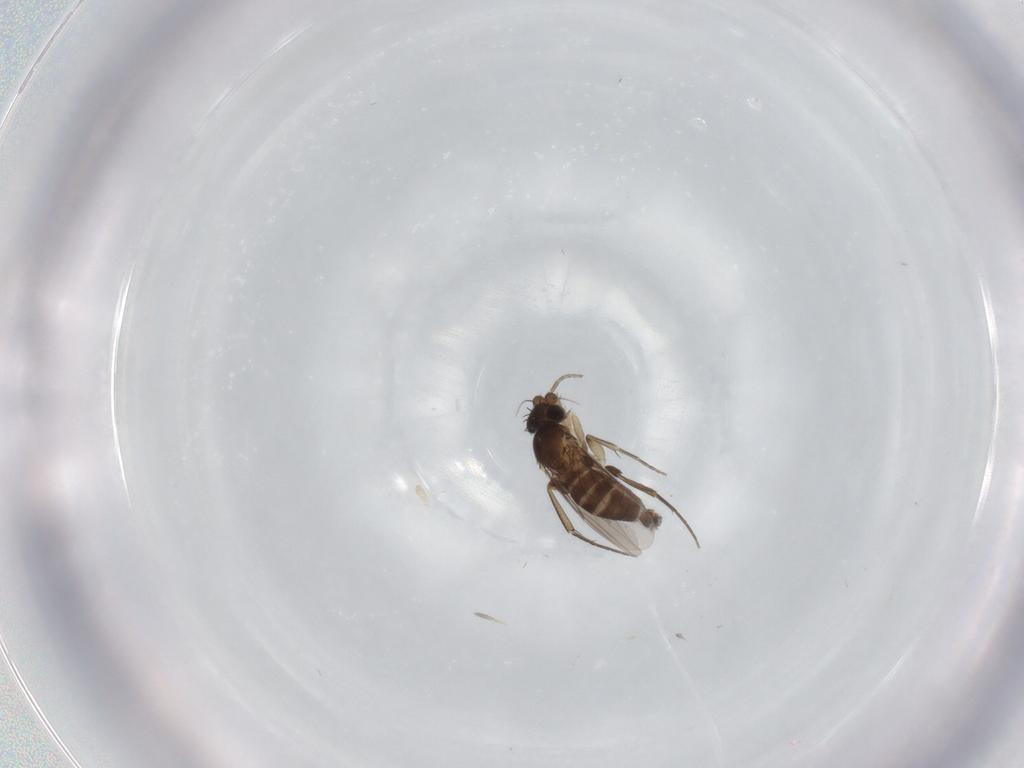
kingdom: Animalia
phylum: Arthropoda
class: Insecta
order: Diptera
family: Phoridae
